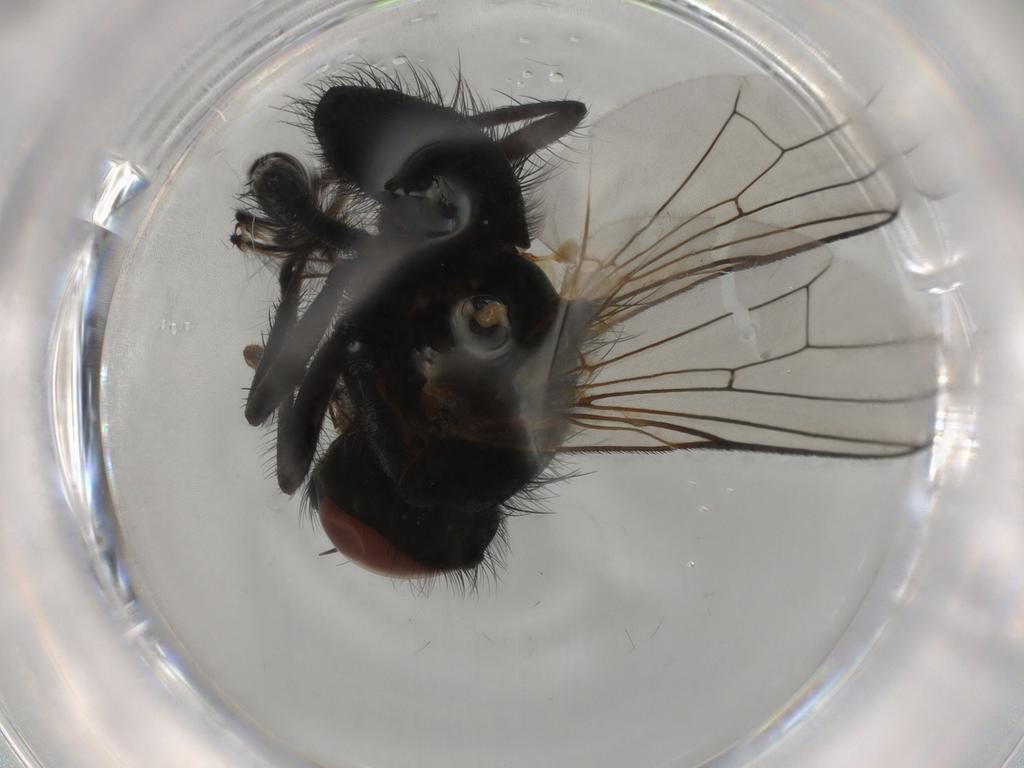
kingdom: Animalia
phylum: Arthropoda
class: Insecta
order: Diptera
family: Anthomyiidae
